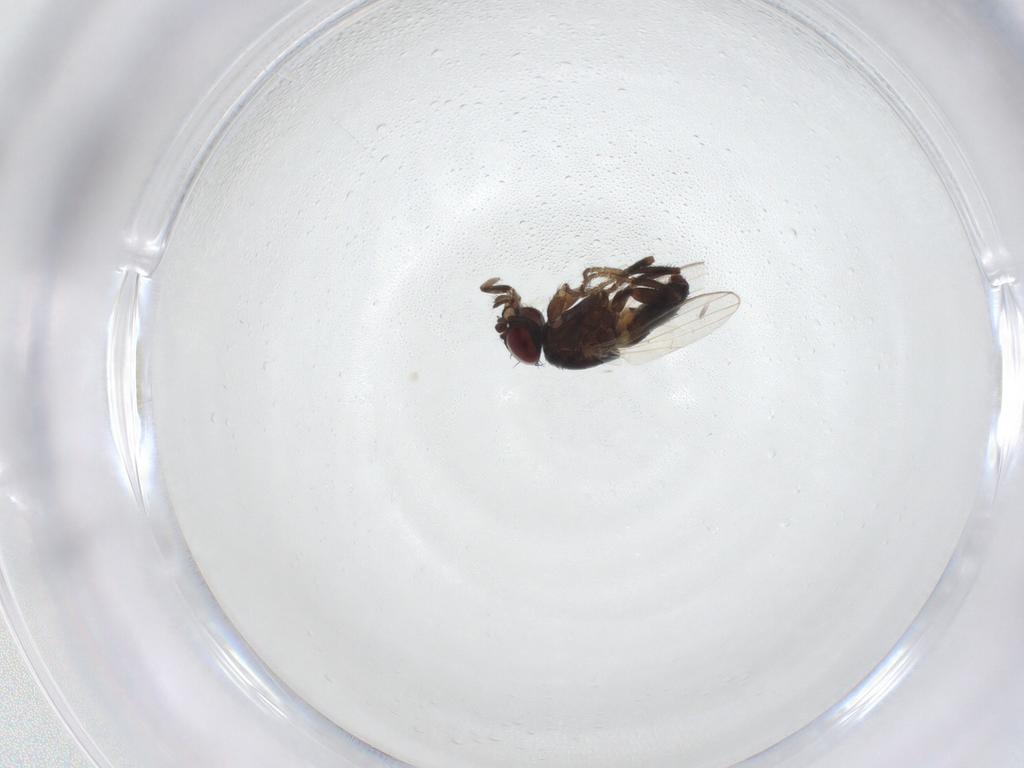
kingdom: Animalia
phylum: Arthropoda
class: Insecta
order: Diptera
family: Milichiidae
